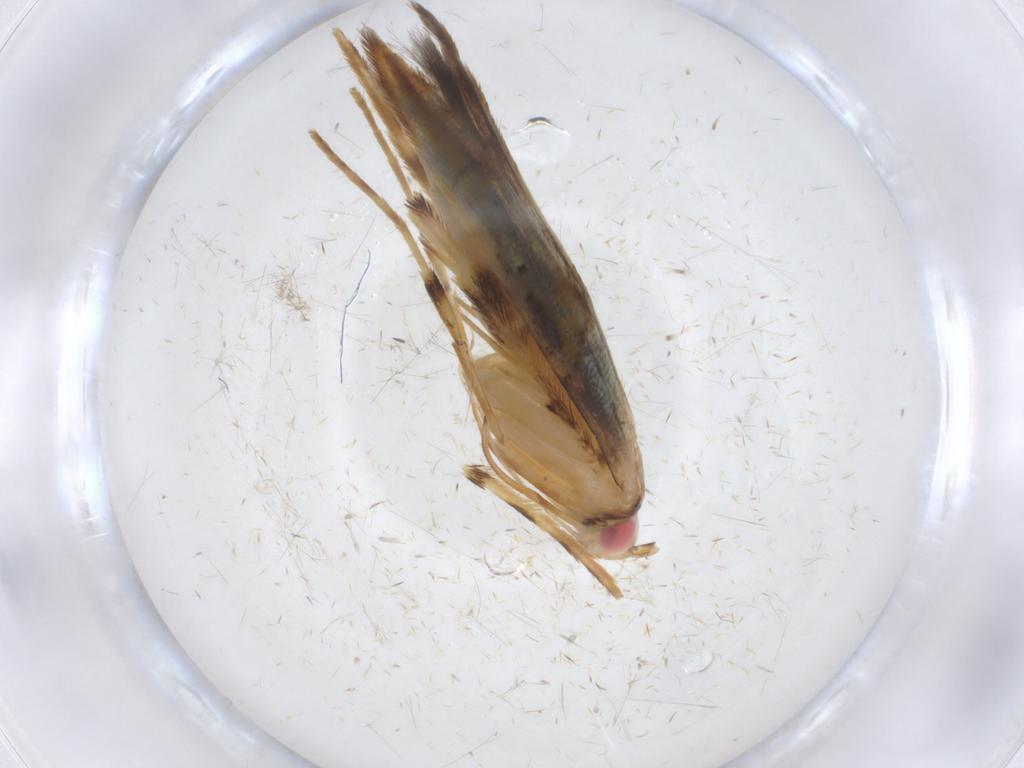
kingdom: Animalia
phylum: Arthropoda
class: Insecta
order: Lepidoptera
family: Gracillariidae
